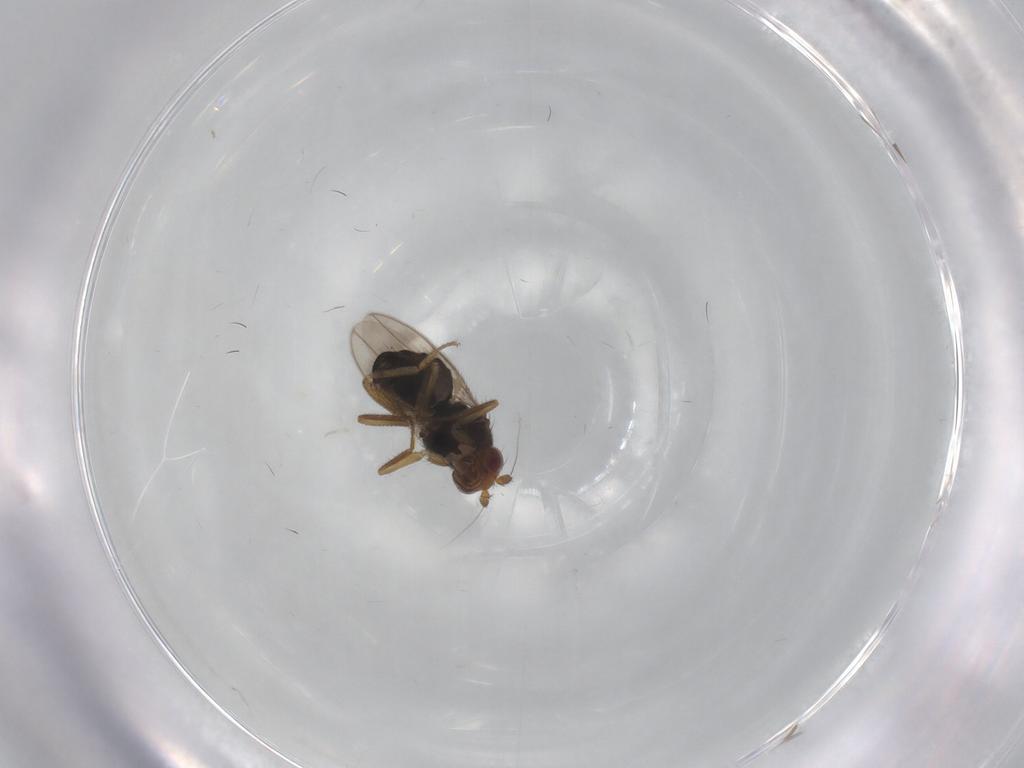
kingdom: Animalia
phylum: Arthropoda
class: Insecta
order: Diptera
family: Sphaeroceridae
